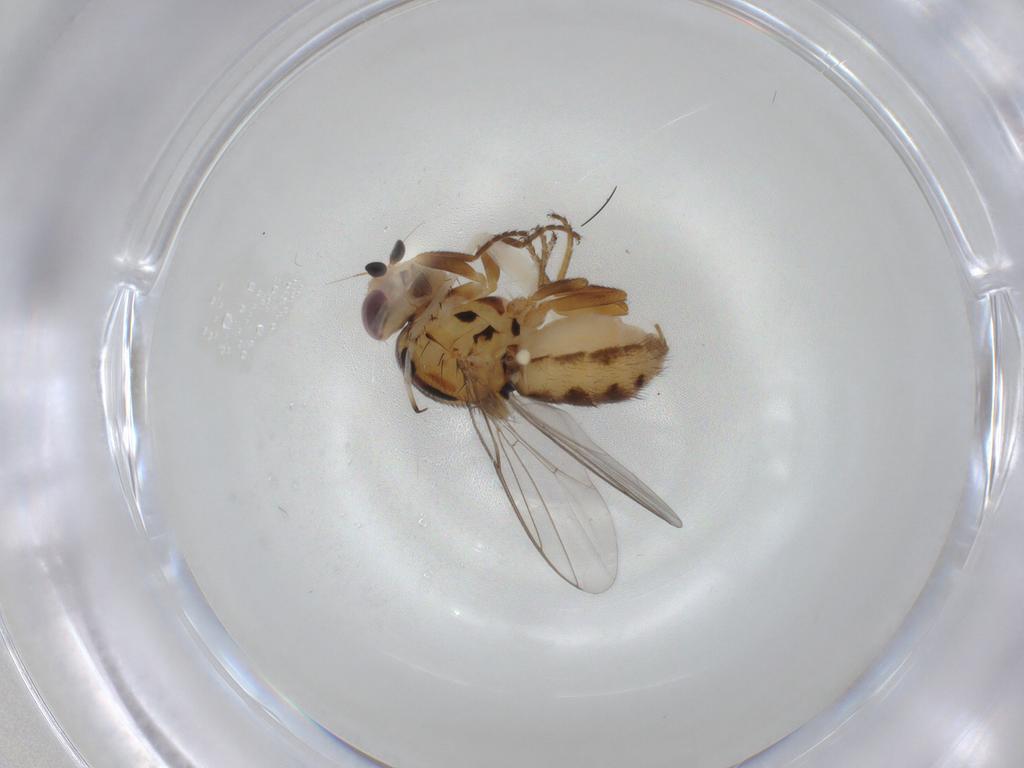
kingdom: Animalia
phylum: Arthropoda
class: Insecta
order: Diptera
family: Chloropidae
